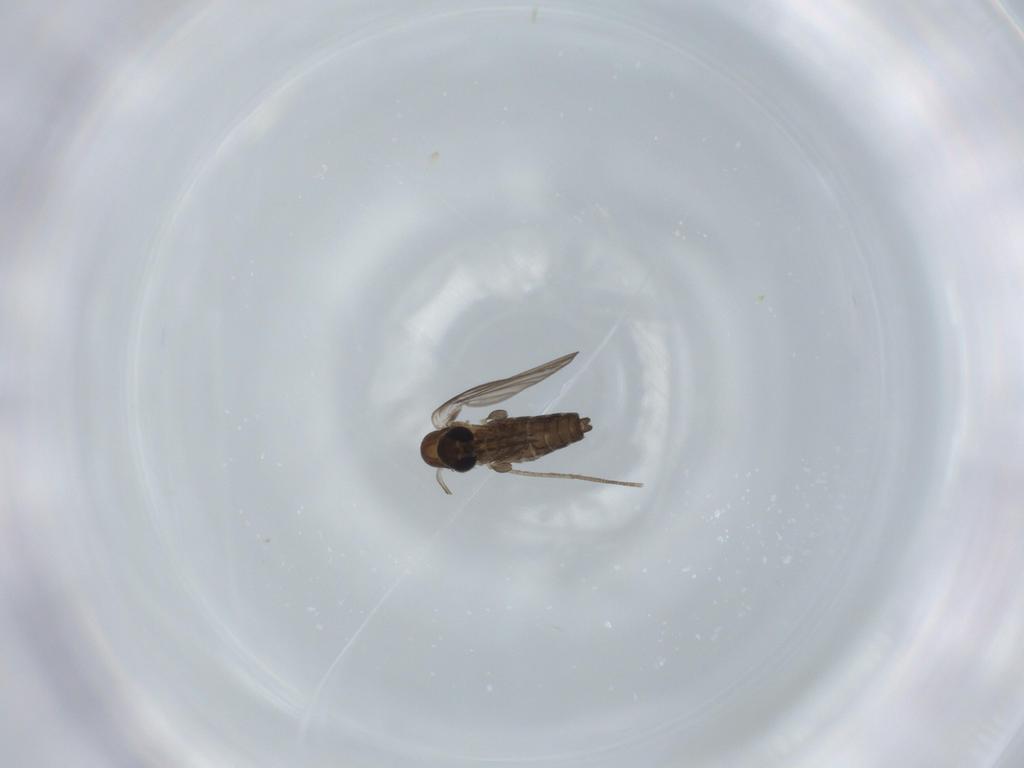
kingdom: Animalia
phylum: Arthropoda
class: Insecta
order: Diptera
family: Psychodidae
